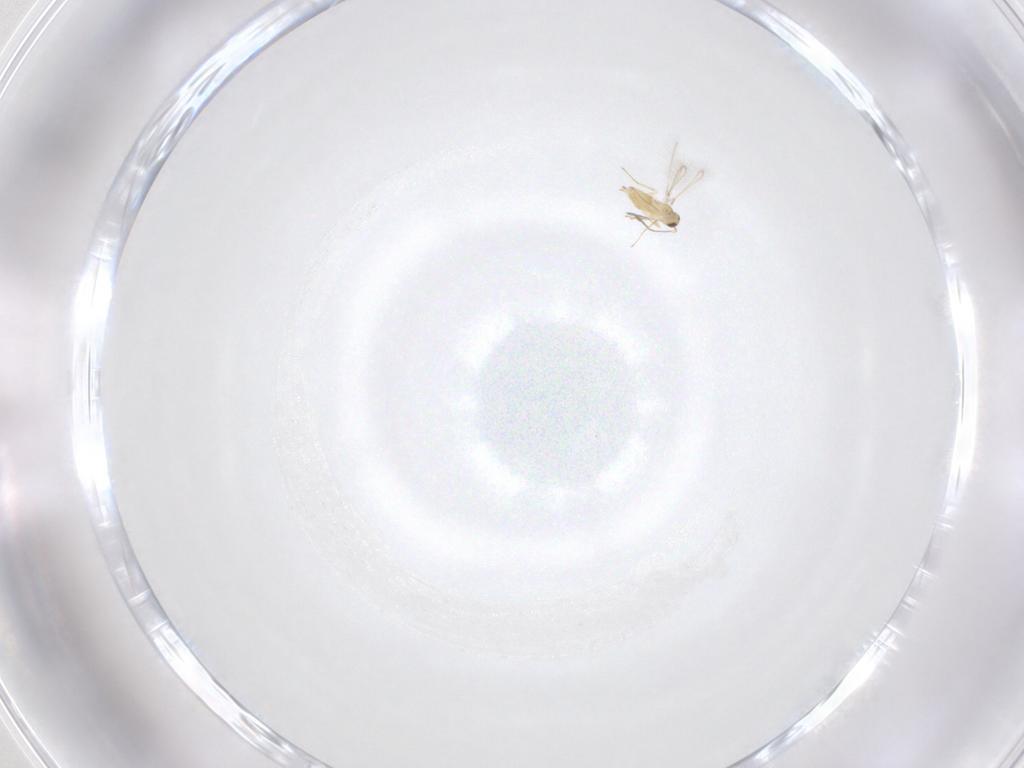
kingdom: Animalia
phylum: Arthropoda
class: Insecta
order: Hymenoptera
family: Mymaridae
